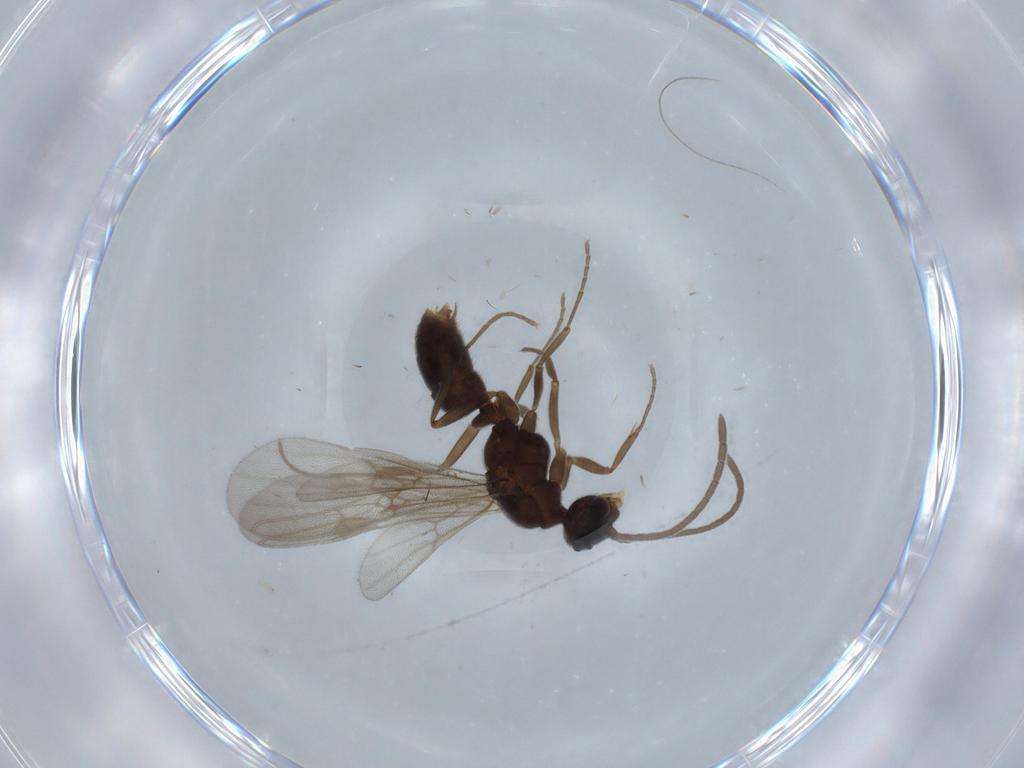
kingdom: Animalia
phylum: Arthropoda
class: Insecta
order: Hymenoptera
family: Formicidae
